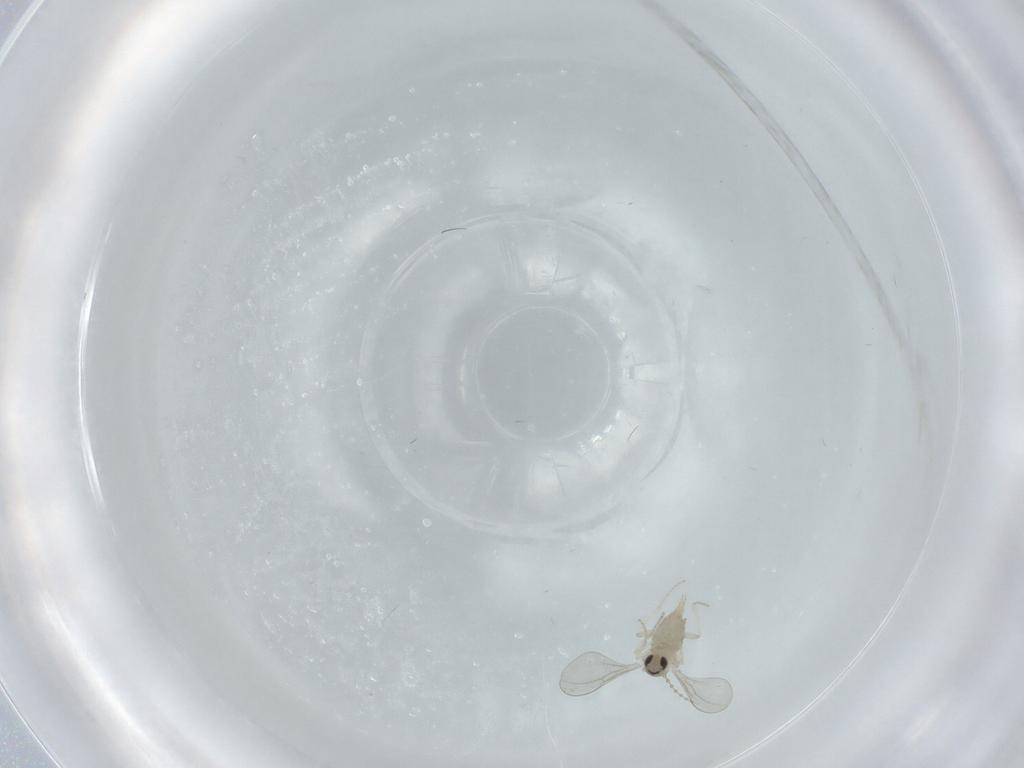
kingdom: Animalia
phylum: Arthropoda
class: Insecta
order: Diptera
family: Cecidomyiidae
